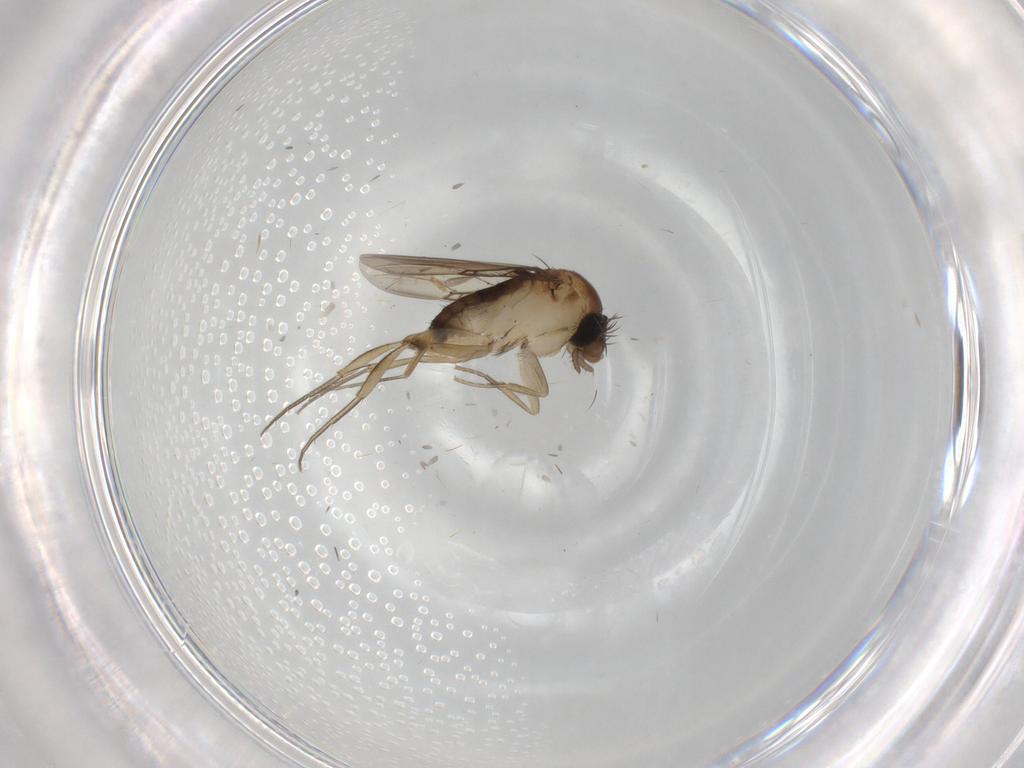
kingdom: Animalia
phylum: Arthropoda
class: Insecta
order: Diptera
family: Phoridae
